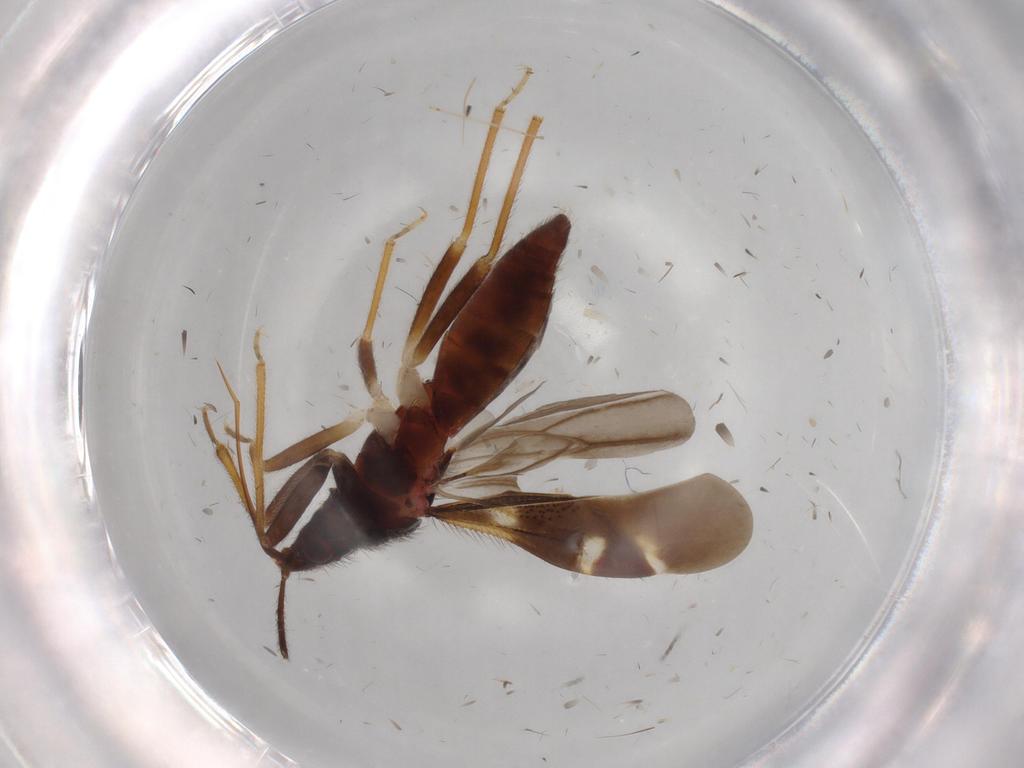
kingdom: Animalia
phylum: Arthropoda
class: Insecta
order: Hemiptera
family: Anthocoridae
